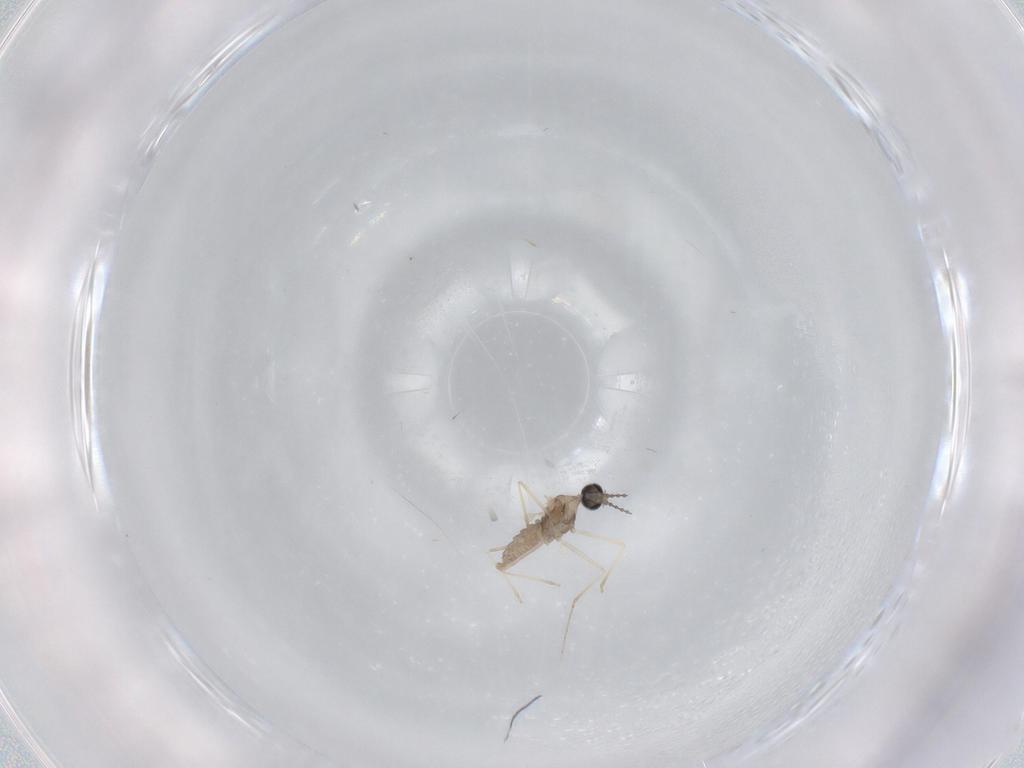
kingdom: Animalia
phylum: Arthropoda
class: Insecta
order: Diptera
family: Cecidomyiidae
